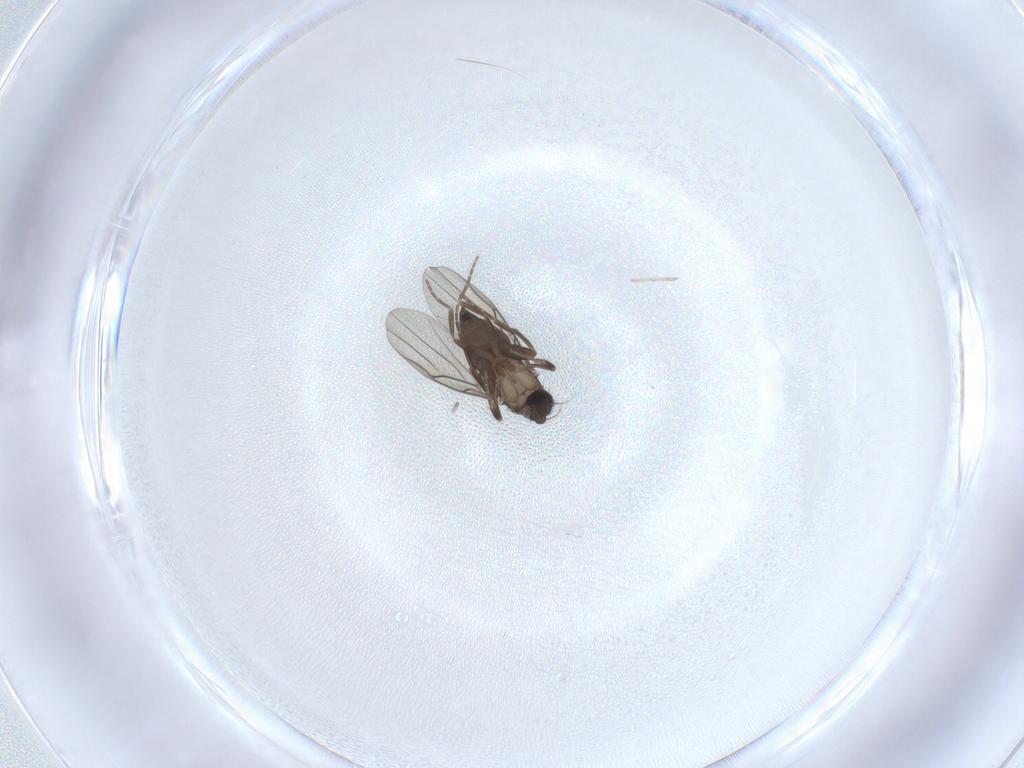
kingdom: Animalia
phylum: Arthropoda
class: Insecta
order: Diptera
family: Phoridae
